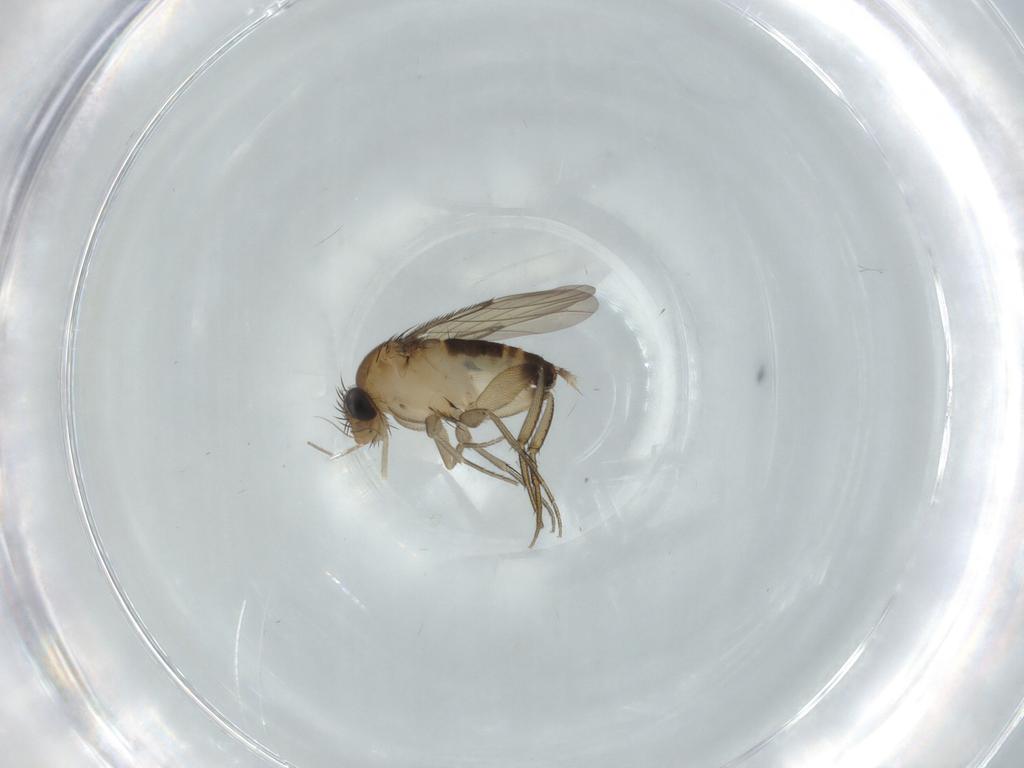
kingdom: Animalia
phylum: Arthropoda
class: Insecta
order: Diptera
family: Phoridae
